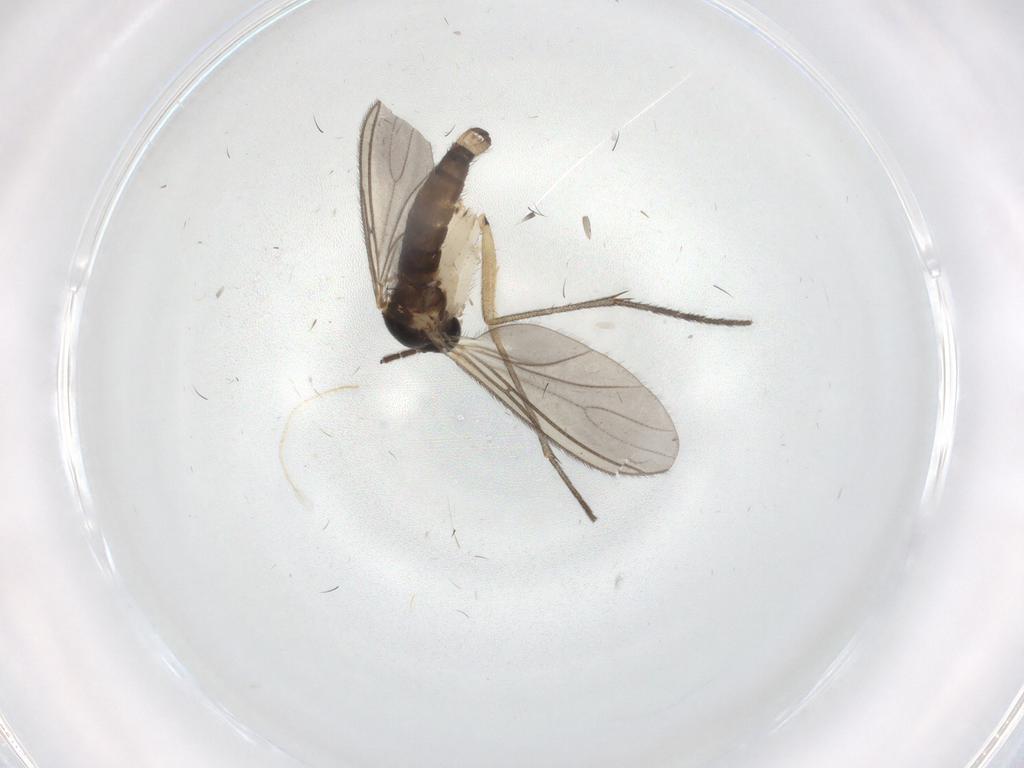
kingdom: Animalia
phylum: Arthropoda
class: Insecta
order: Diptera
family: Sciaridae
